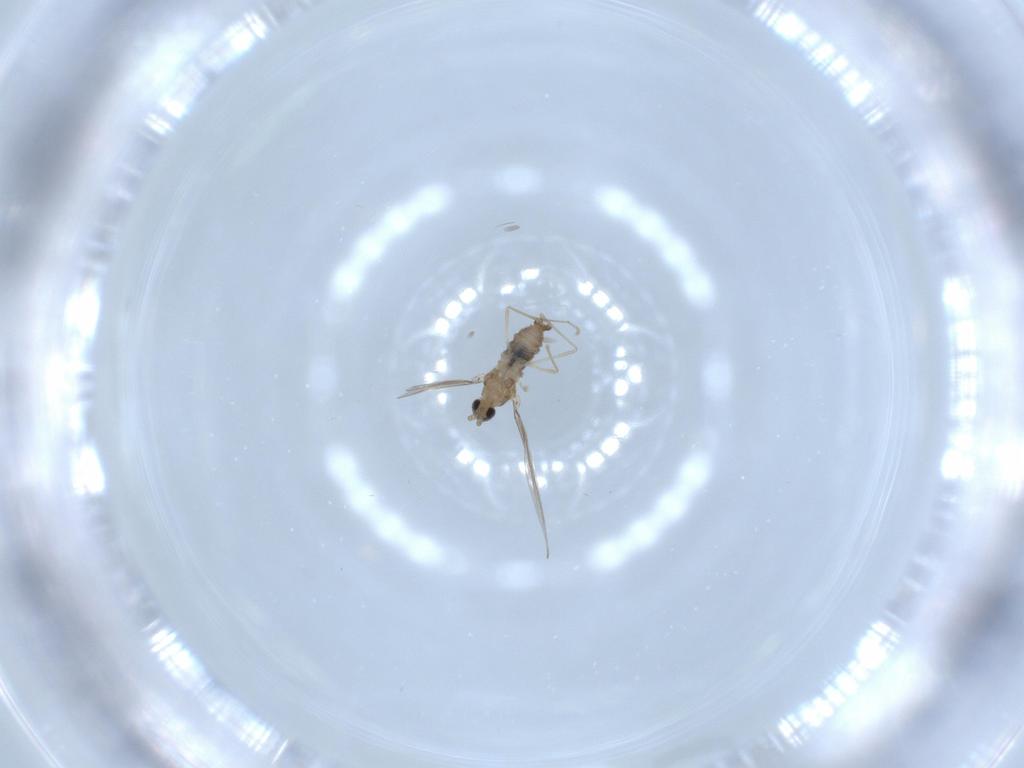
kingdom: Animalia
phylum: Arthropoda
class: Insecta
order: Diptera
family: Cecidomyiidae
